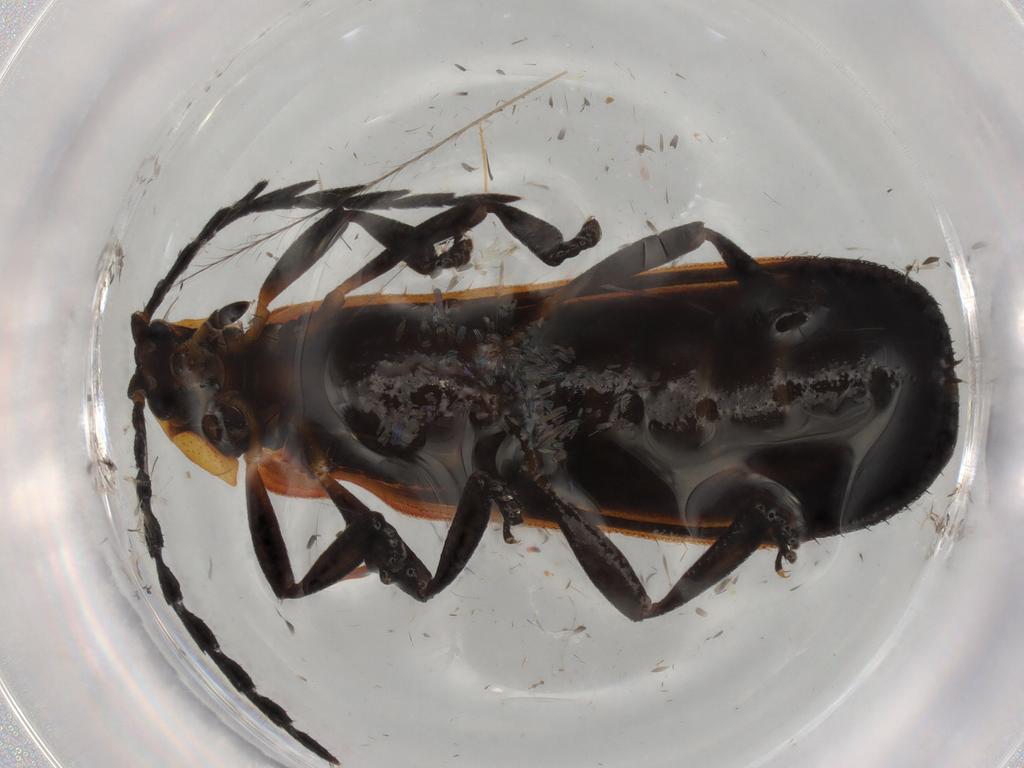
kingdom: Animalia
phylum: Arthropoda
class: Insecta
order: Coleoptera
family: Lycidae
